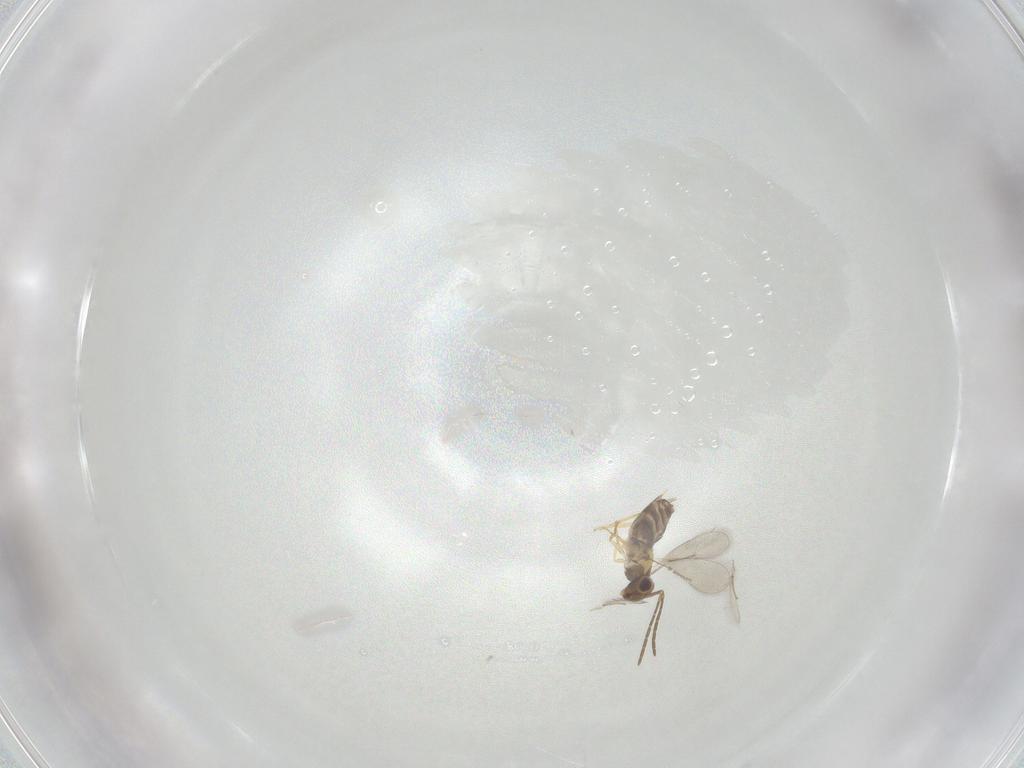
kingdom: Animalia
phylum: Arthropoda
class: Insecta
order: Hymenoptera
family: Aphelinidae
